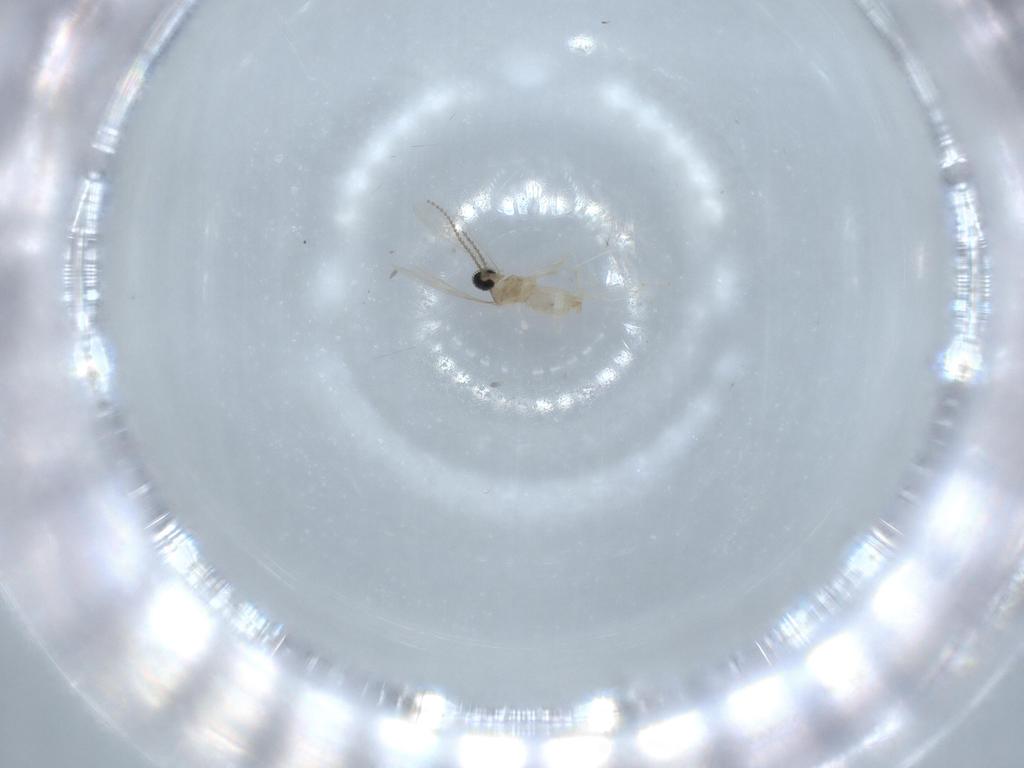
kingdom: Animalia
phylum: Arthropoda
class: Insecta
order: Diptera
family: Cecidomyiidae
